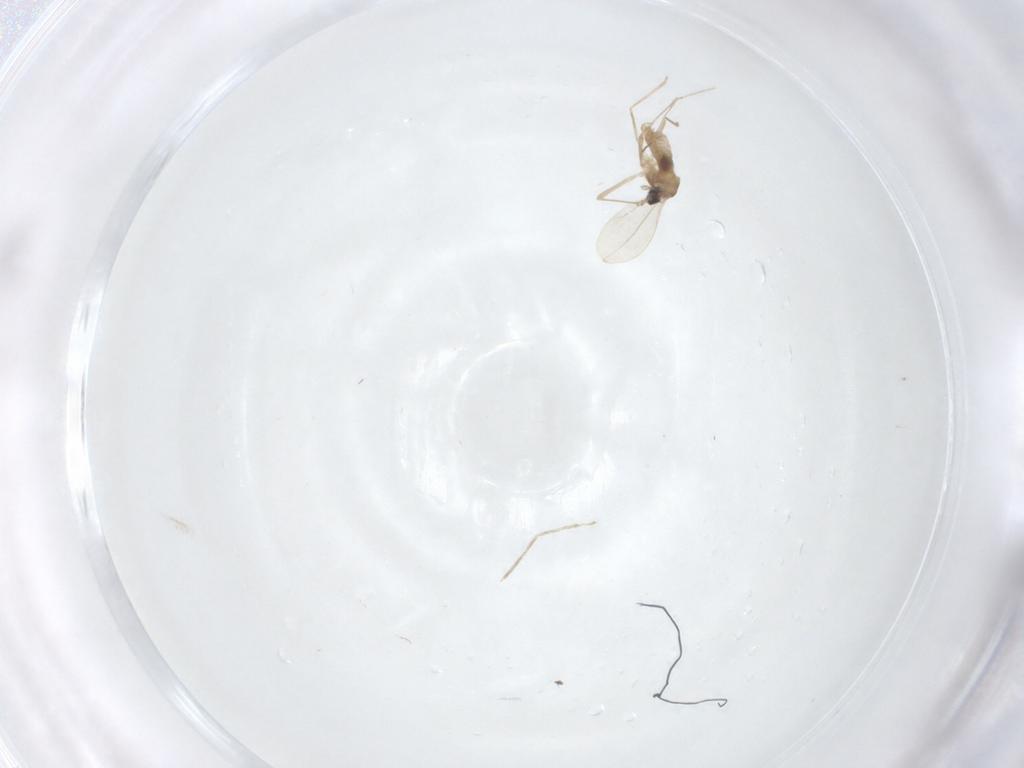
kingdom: Animalia
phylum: Arthropoda
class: Insecta
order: Diptera
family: Cecidomyiidae
